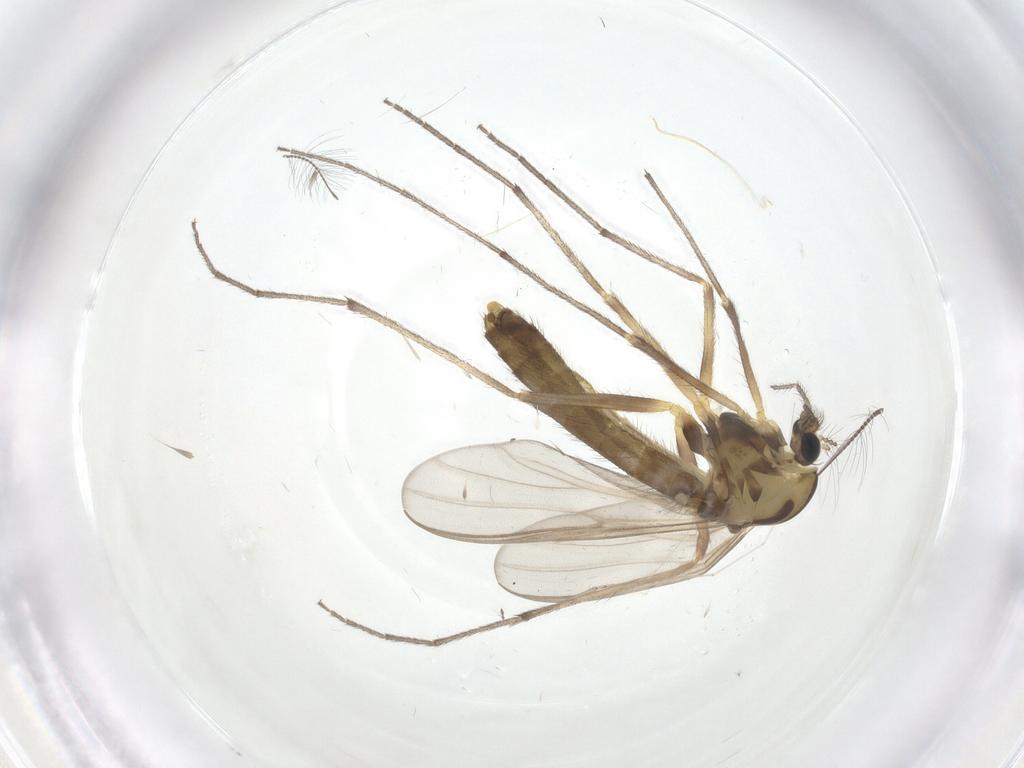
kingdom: Animalia
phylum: Arthropoda
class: Insecta
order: Diptera
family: Chironomidae
